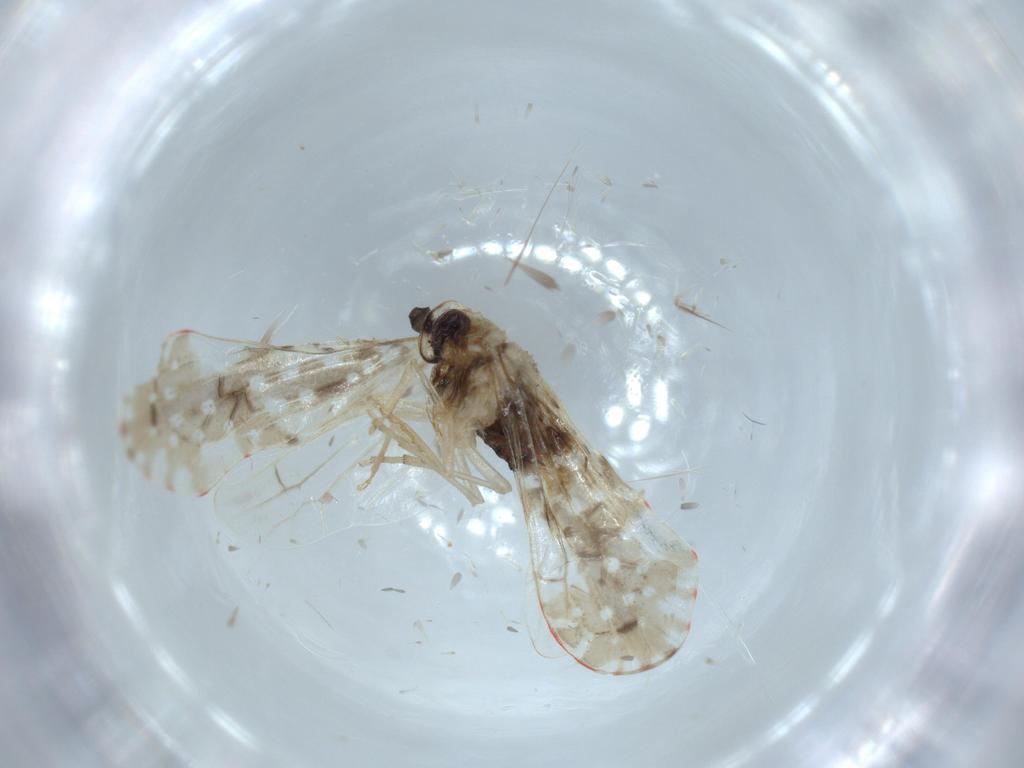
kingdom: Animalia
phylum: Arthropoda
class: Insecta
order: Hemiptera
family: Derbidae
